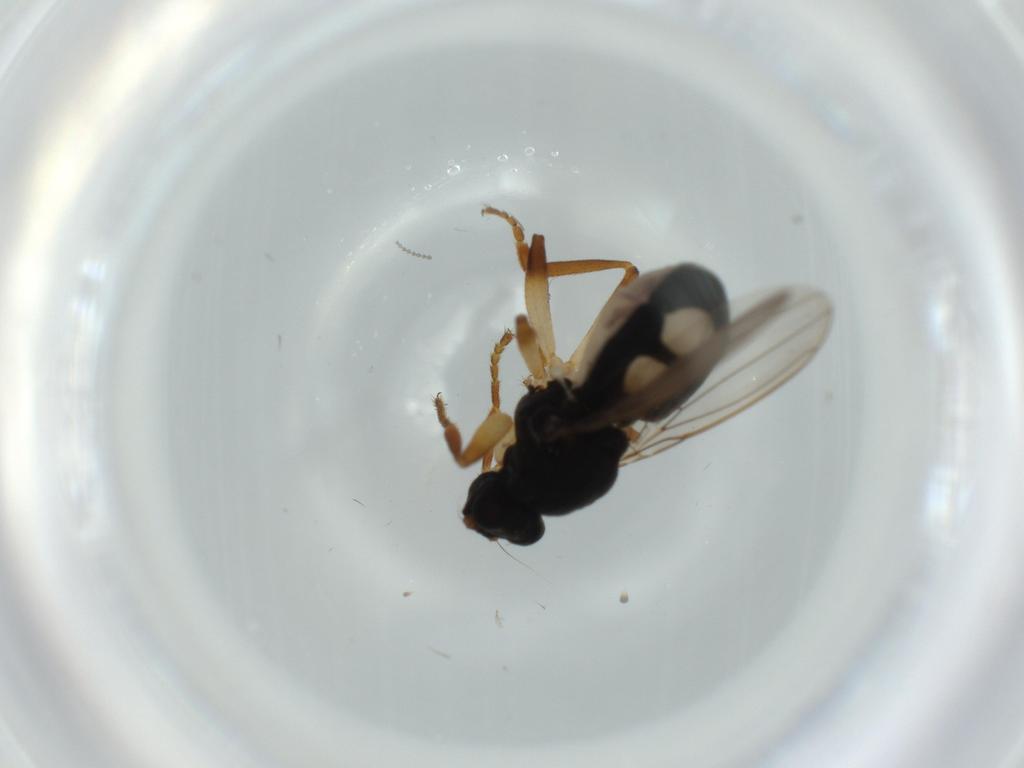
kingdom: Animalia
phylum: Arthropoda
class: Insecta
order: Diptera
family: Sphaeroceridae
